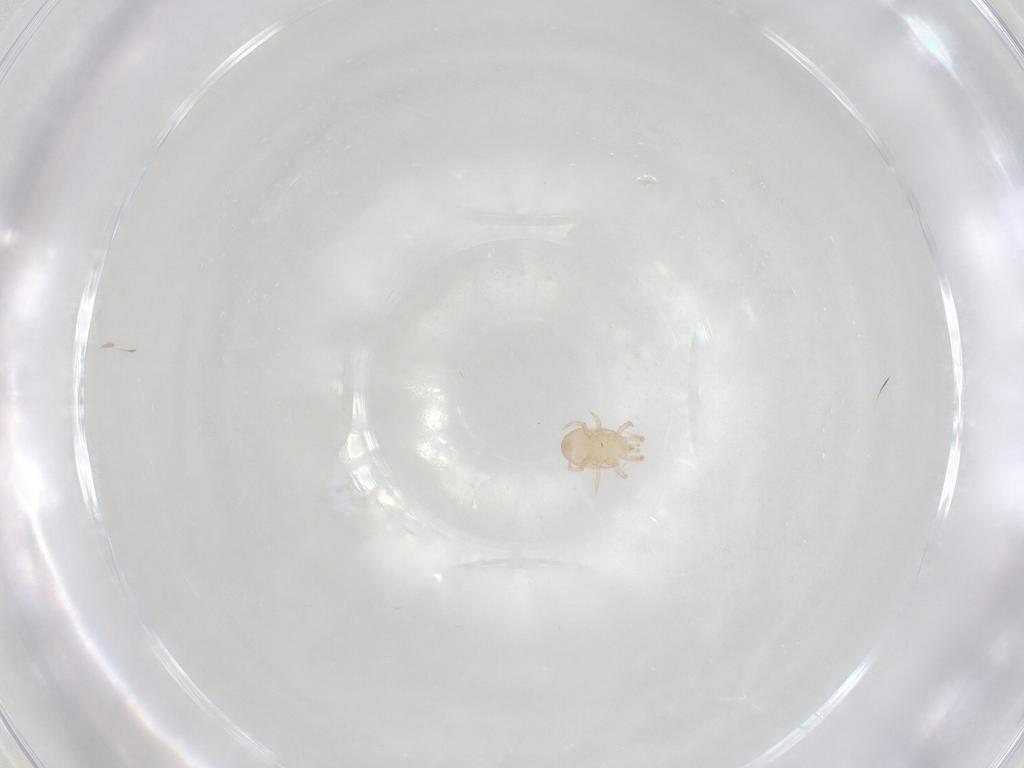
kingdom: Animalia
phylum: Arthropoda
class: Arachnida
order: Mesostigmata
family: Melicharidae
